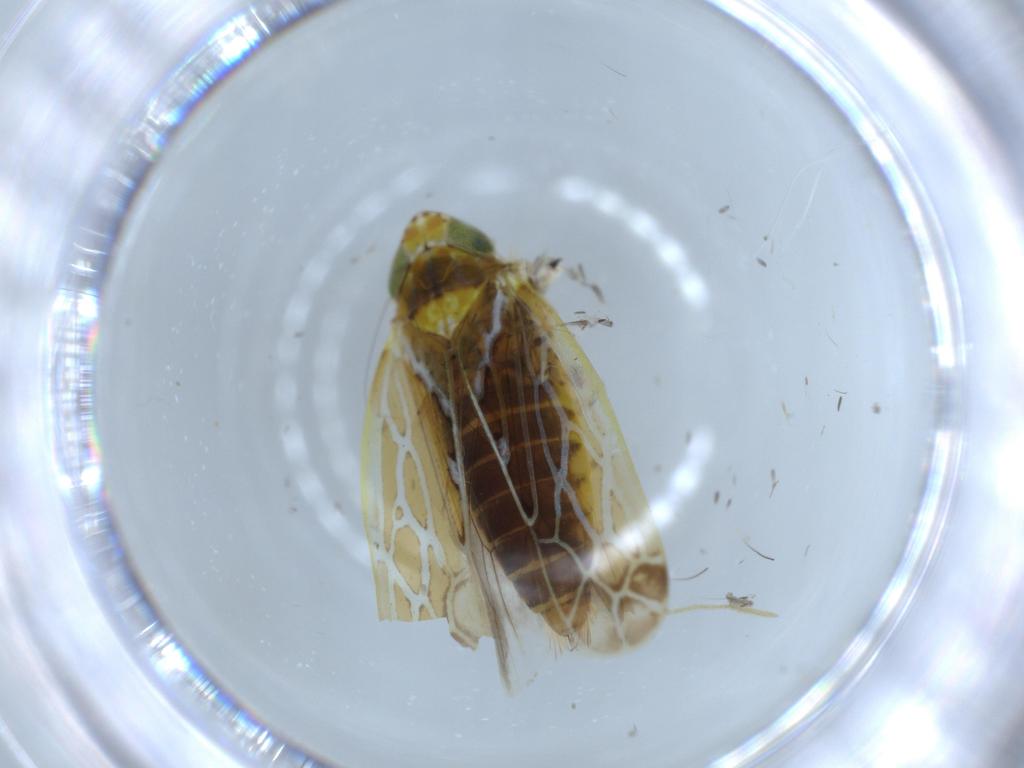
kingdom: Animalia
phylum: Arthropoda
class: Insecta
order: Hemiptera
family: Cicadellidae
